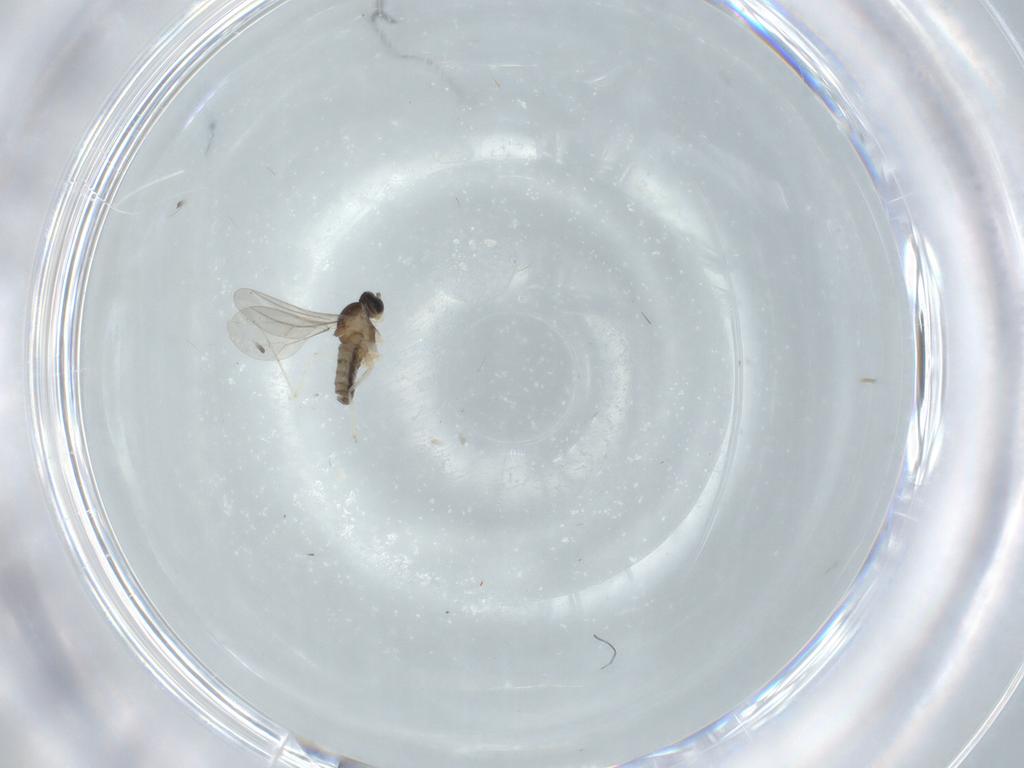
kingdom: Animalia
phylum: Arthropoda
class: Insecta
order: Diptera
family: Cecidomyiidae
